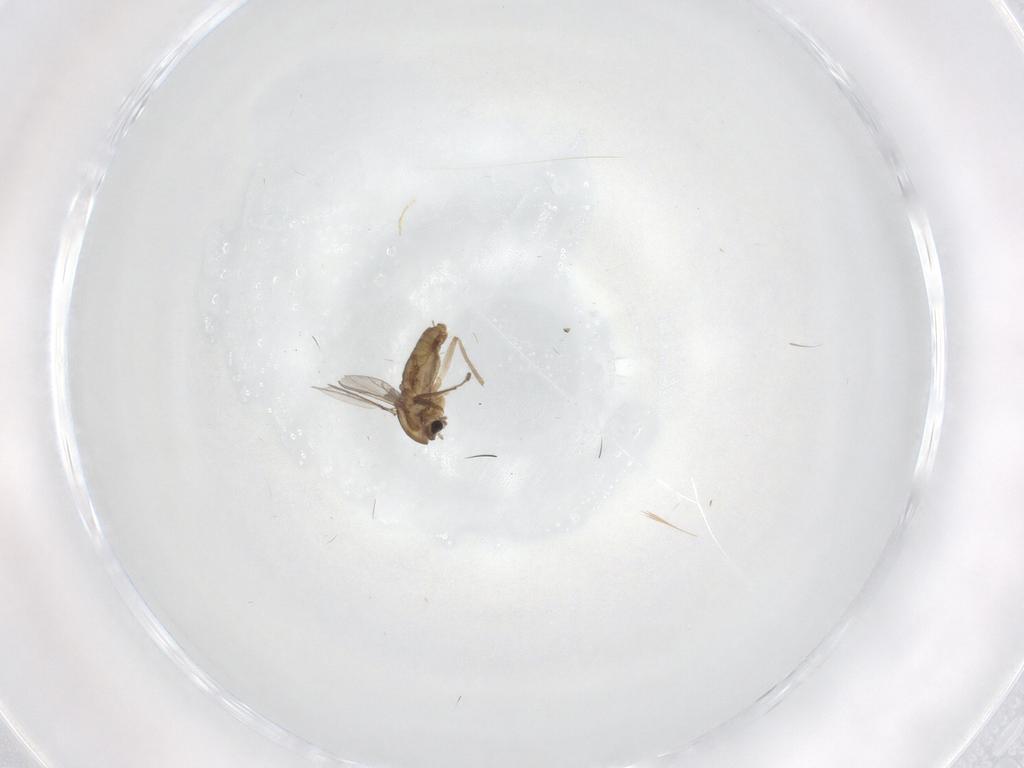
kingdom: Animalia
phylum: Arthropoda
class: Insecta
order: Diptera
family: Chironomidae
